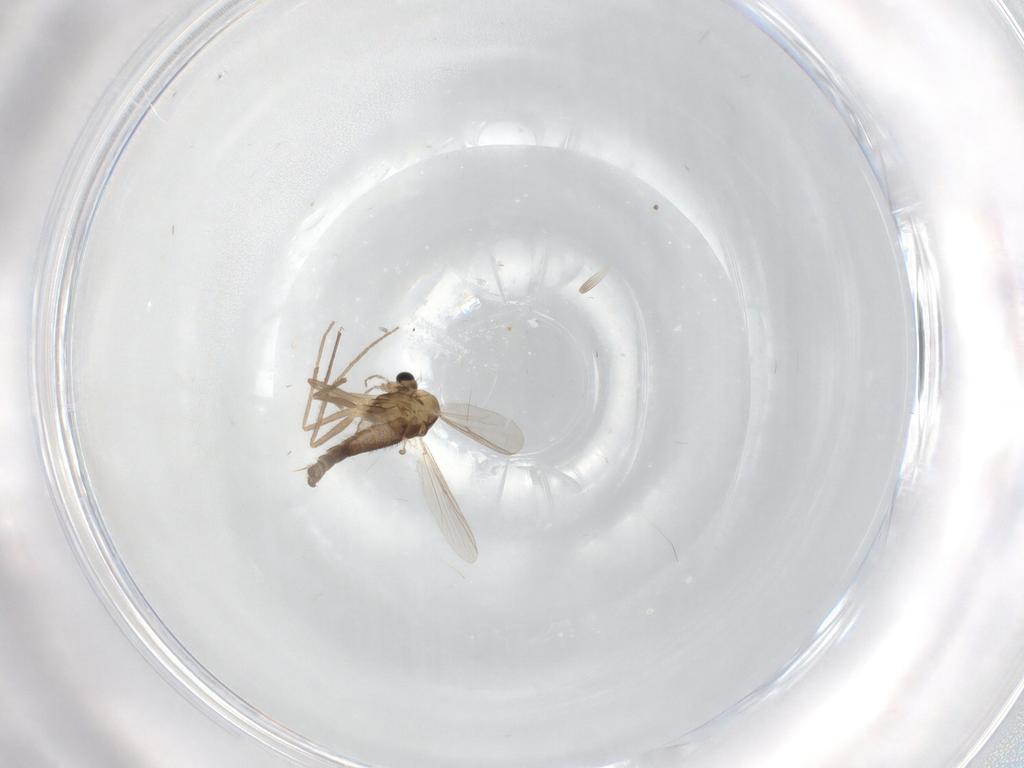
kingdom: Animalia
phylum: Arthropoda
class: Insecta
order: Diptera
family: Chironomidae
